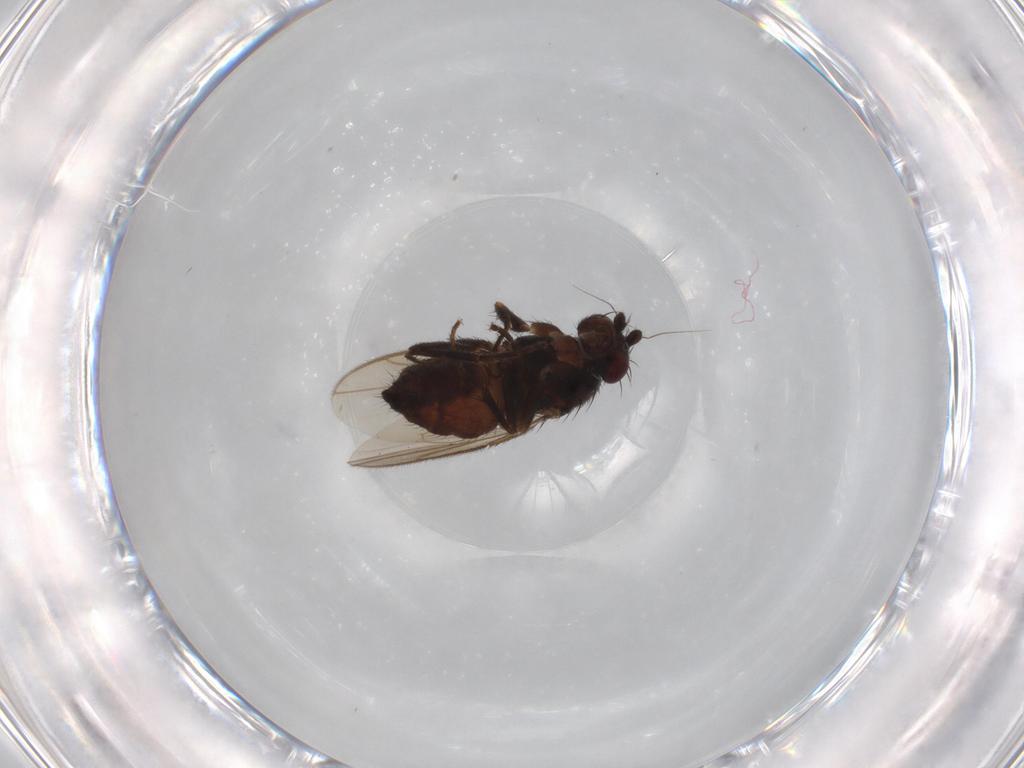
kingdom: Animalia
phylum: Arthropoda
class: Insecta
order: Diptera
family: Sphaeroceridae
